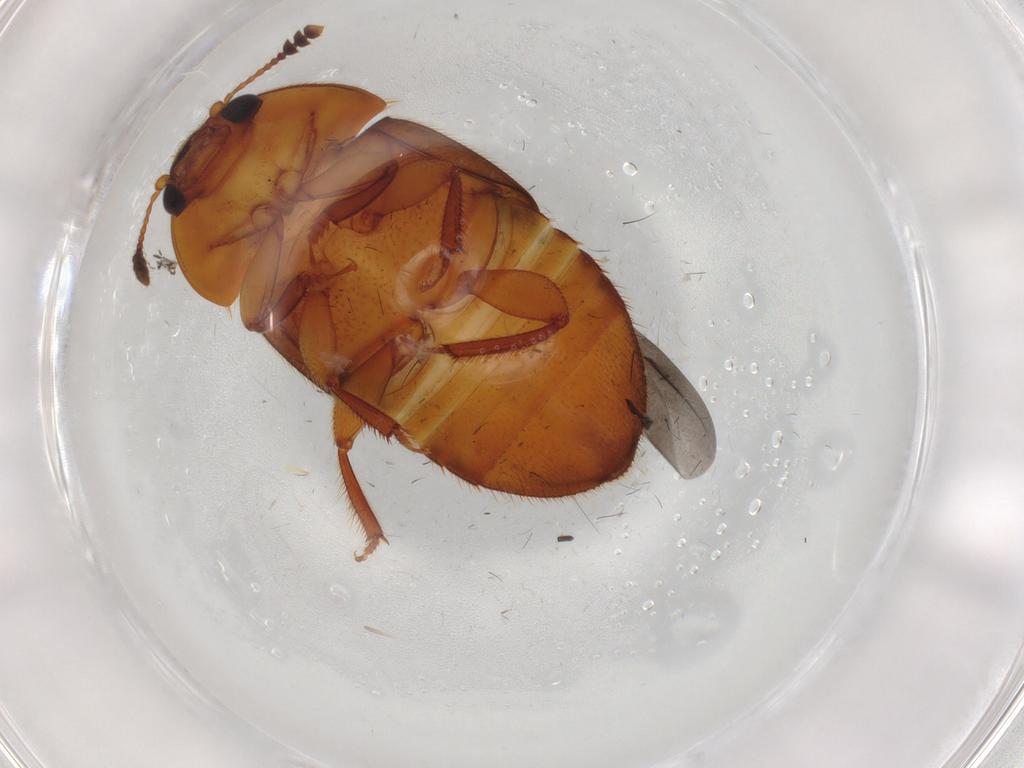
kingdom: Animalia
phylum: Arthropoda
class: Insecta
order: Coleoptera
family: Nitidulidae
